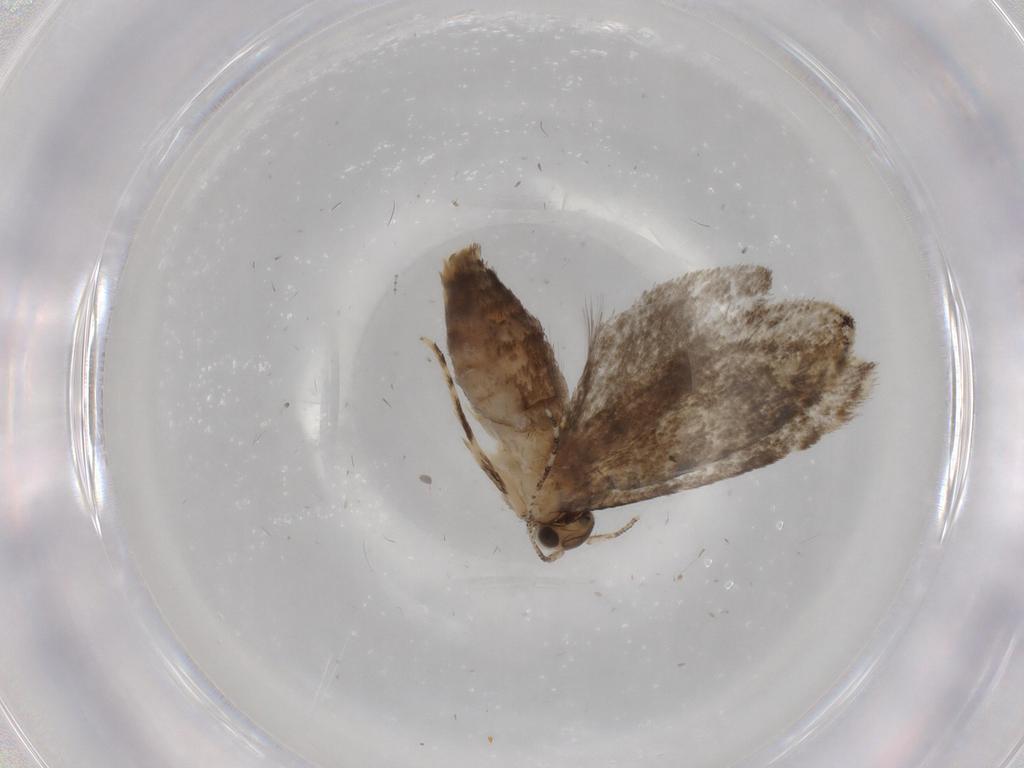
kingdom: Animalia
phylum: Arthropoda
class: Insecta
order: Lepidoptera
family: Tineidae
